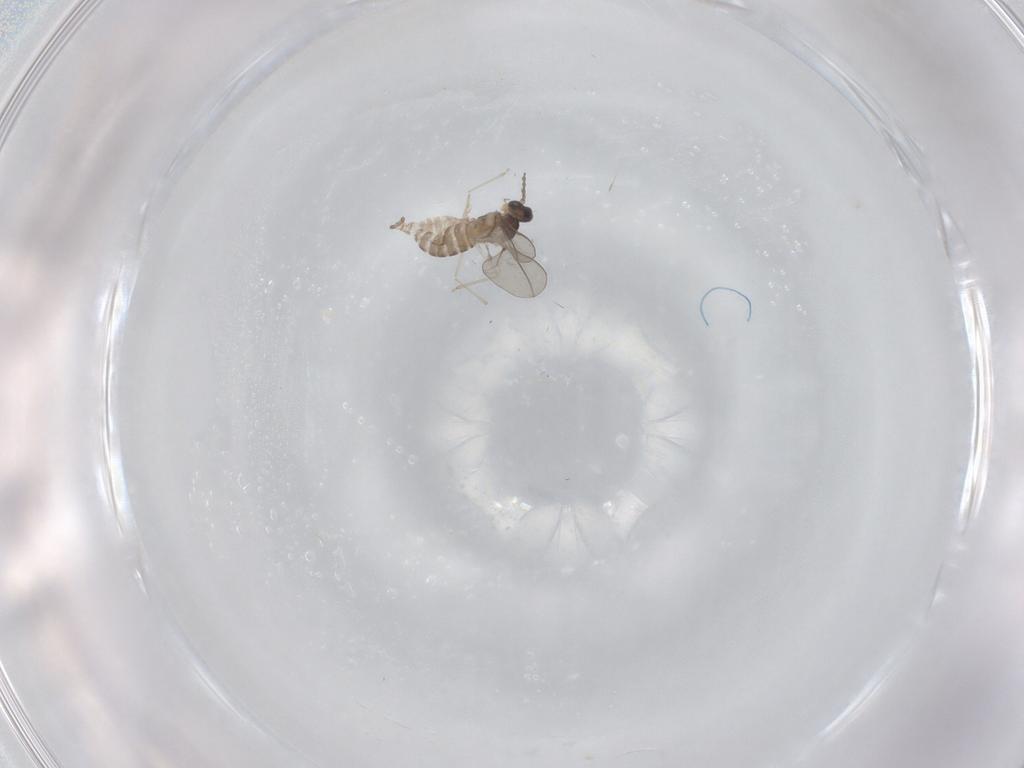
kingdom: Animalia
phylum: Arthropoda
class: Insecta
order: Diptera
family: Cecidomyiidae
